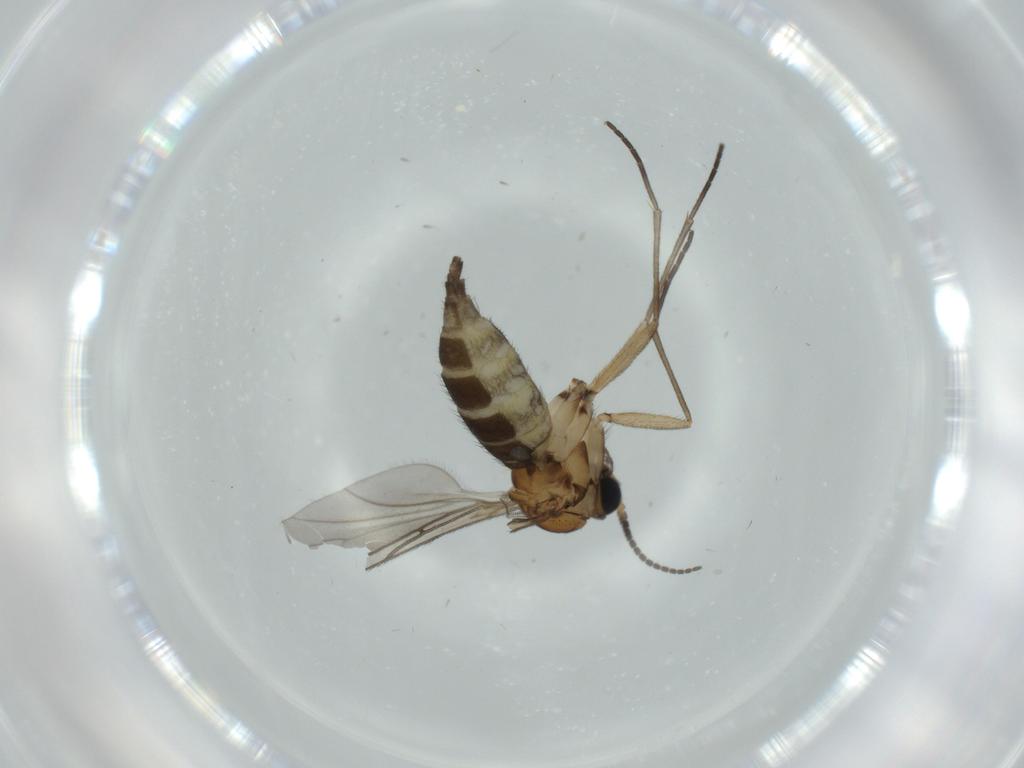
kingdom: Animalia
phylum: Arthropoda
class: Insecta
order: Diptera
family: Sciaridae
